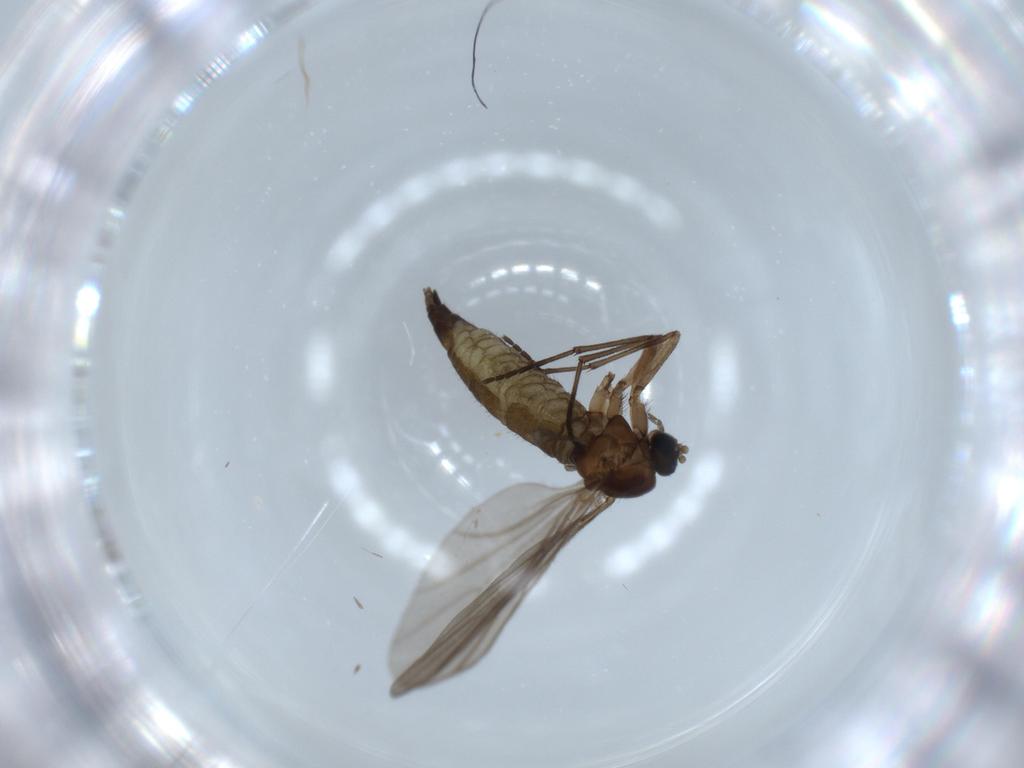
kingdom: Animalia
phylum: Arthropoda
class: Insecta
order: Diptera
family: Sciaridae
